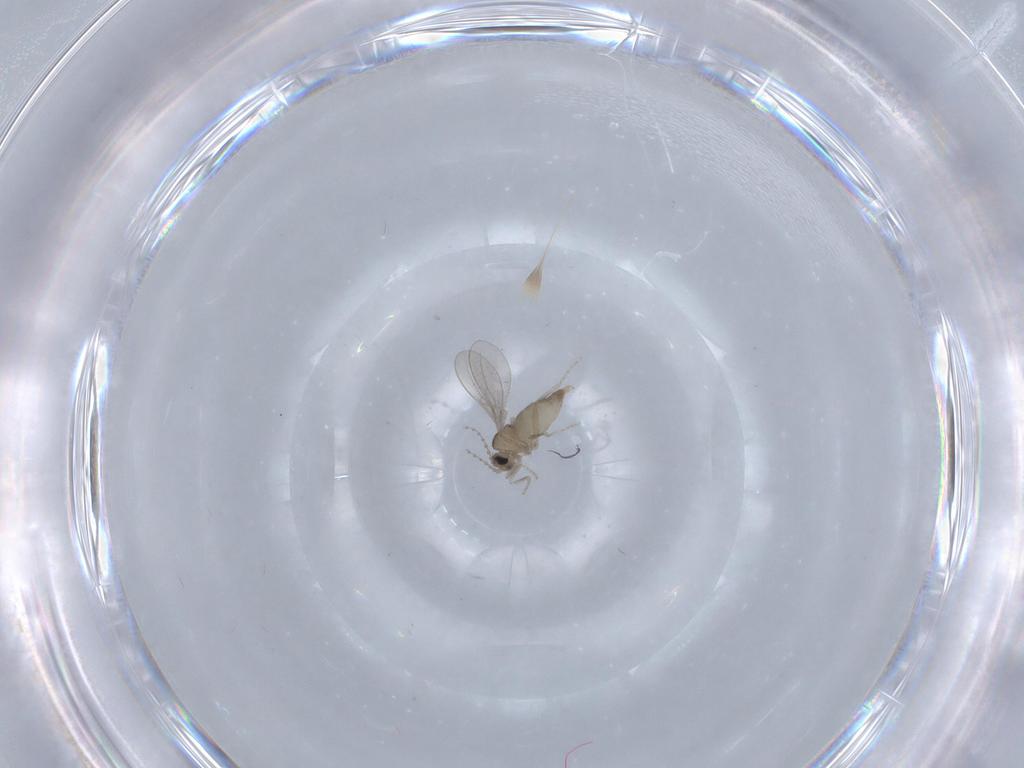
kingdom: Animalia
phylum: Arthropoda
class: Insecta
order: Diptera
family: Cecidomyiidae
